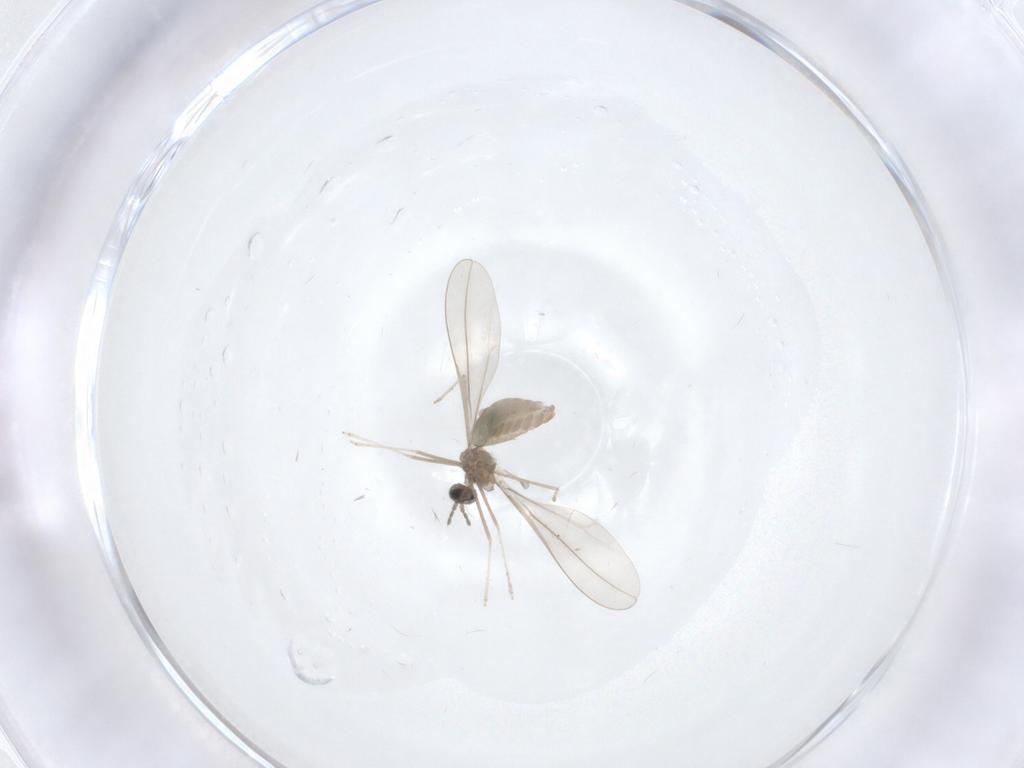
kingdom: Animalia
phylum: Arthropoda
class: Insecta
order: Diptera
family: Cecidomyiidae
